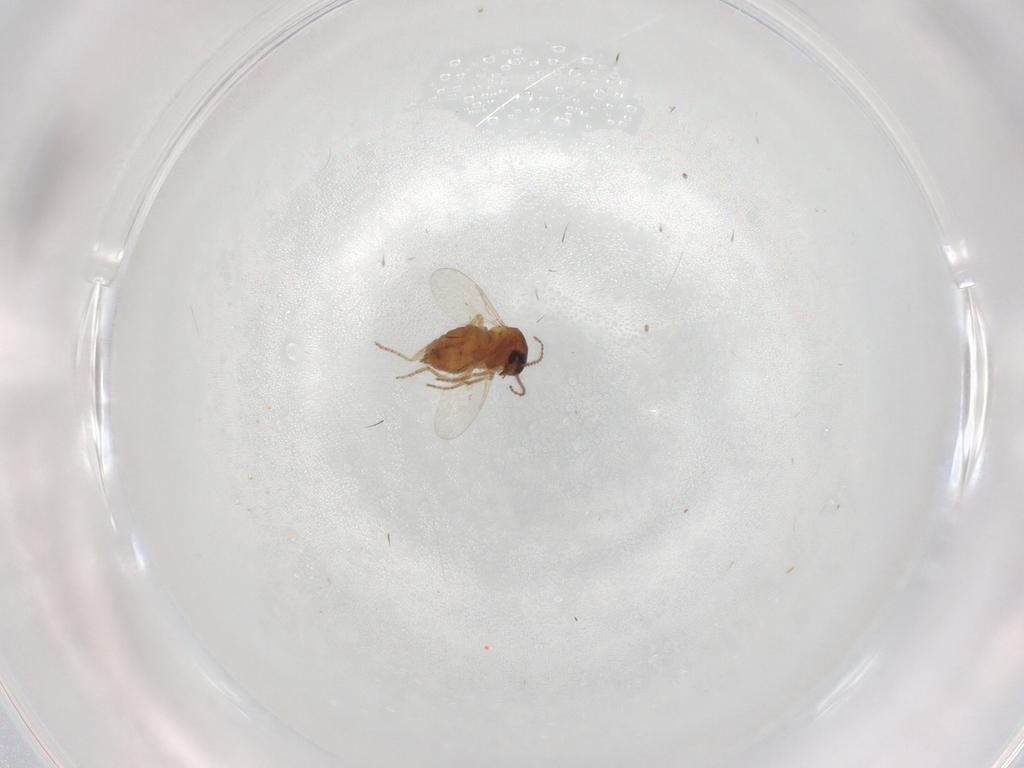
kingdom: Animalia
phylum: Arthropoda
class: Insecta
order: Diptera
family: Ceratopogonidae
